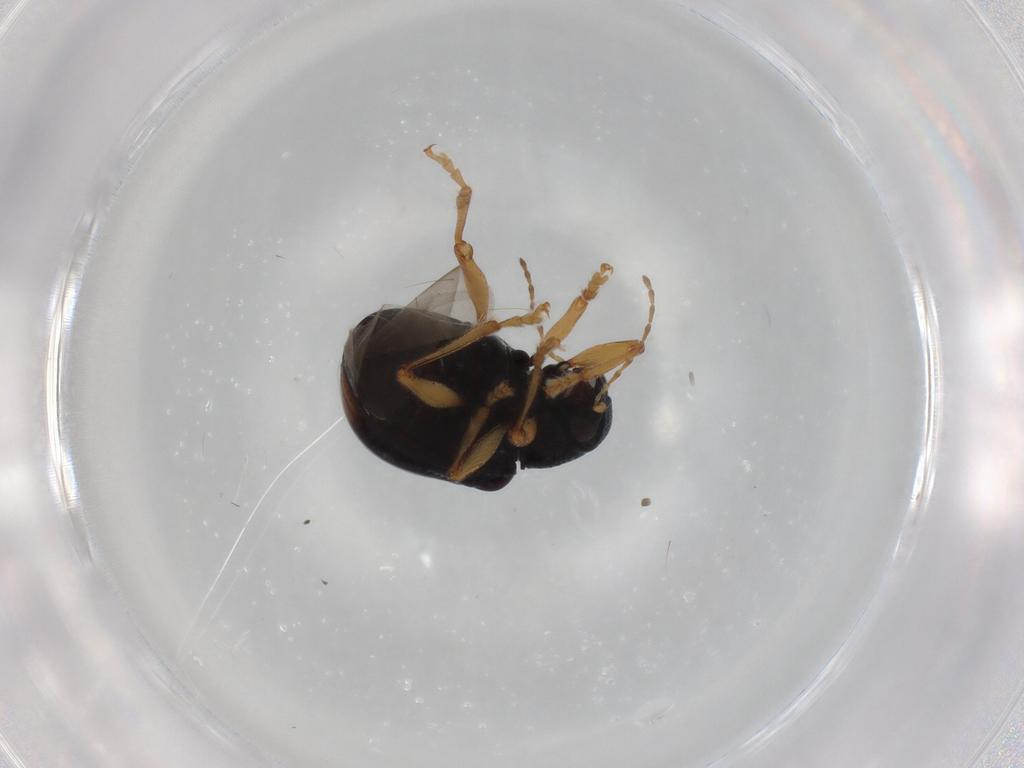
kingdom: Animalia
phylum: Arthropoda
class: Insecta
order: Coleoptera
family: Chrysomelidae
